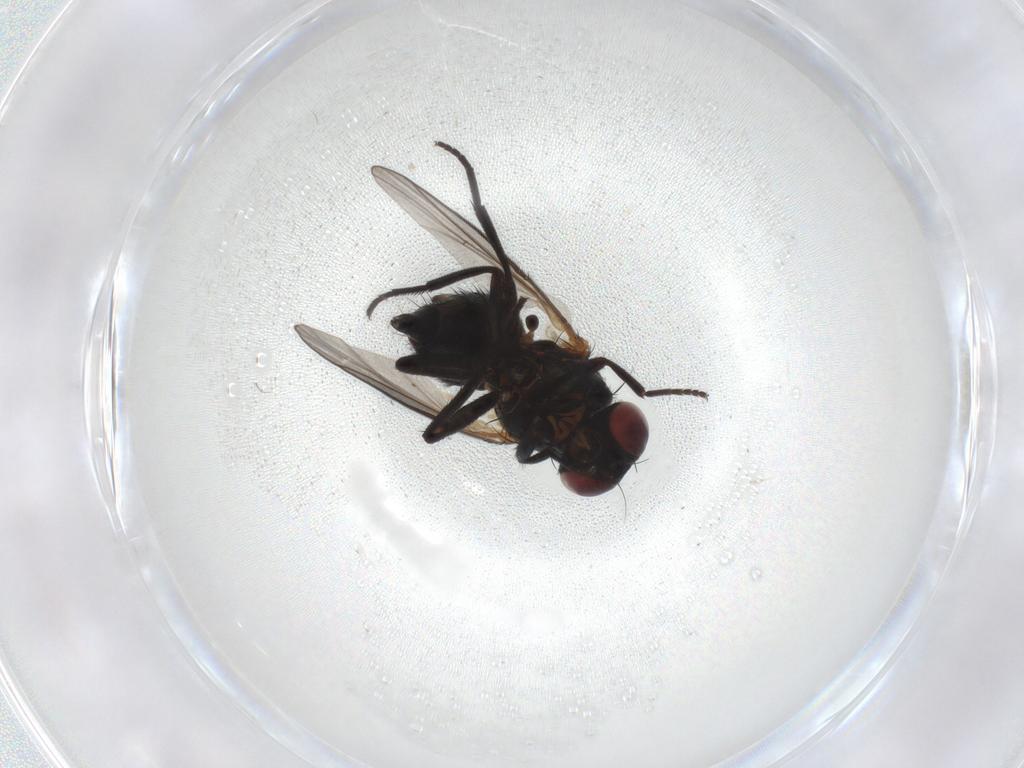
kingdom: Animalia
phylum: Arthropoda
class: Insecta
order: Diptera
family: Agromyzidae
